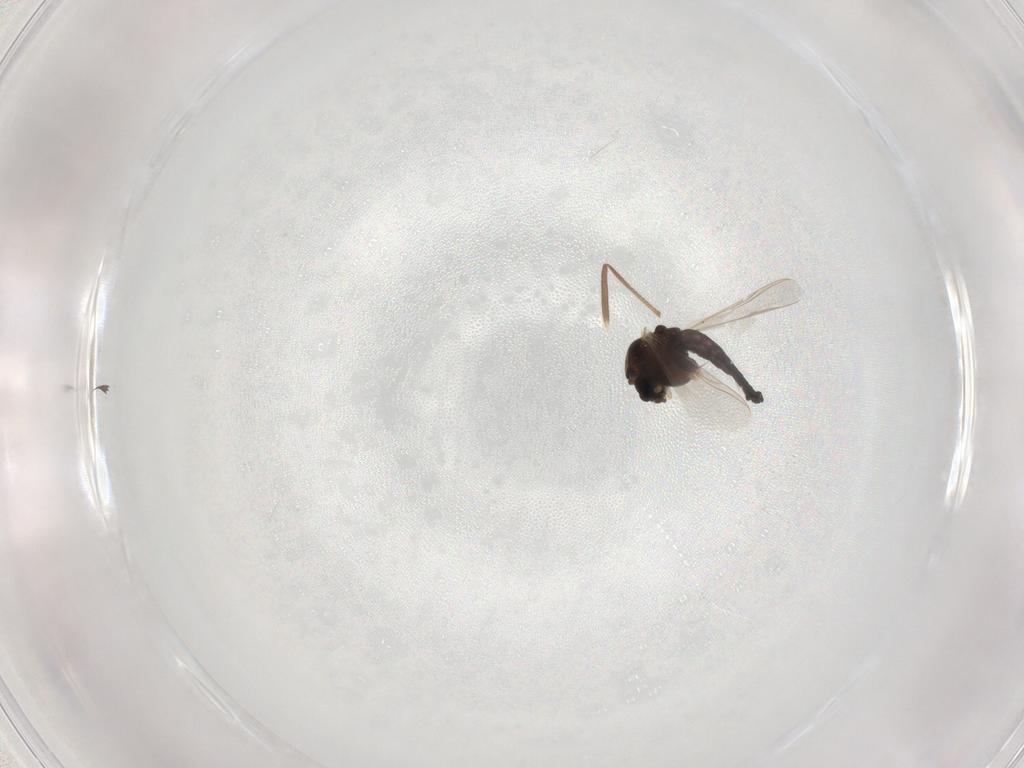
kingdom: Animalia
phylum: Arthropoda
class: Insecta
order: Diptera
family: Chironomidae
